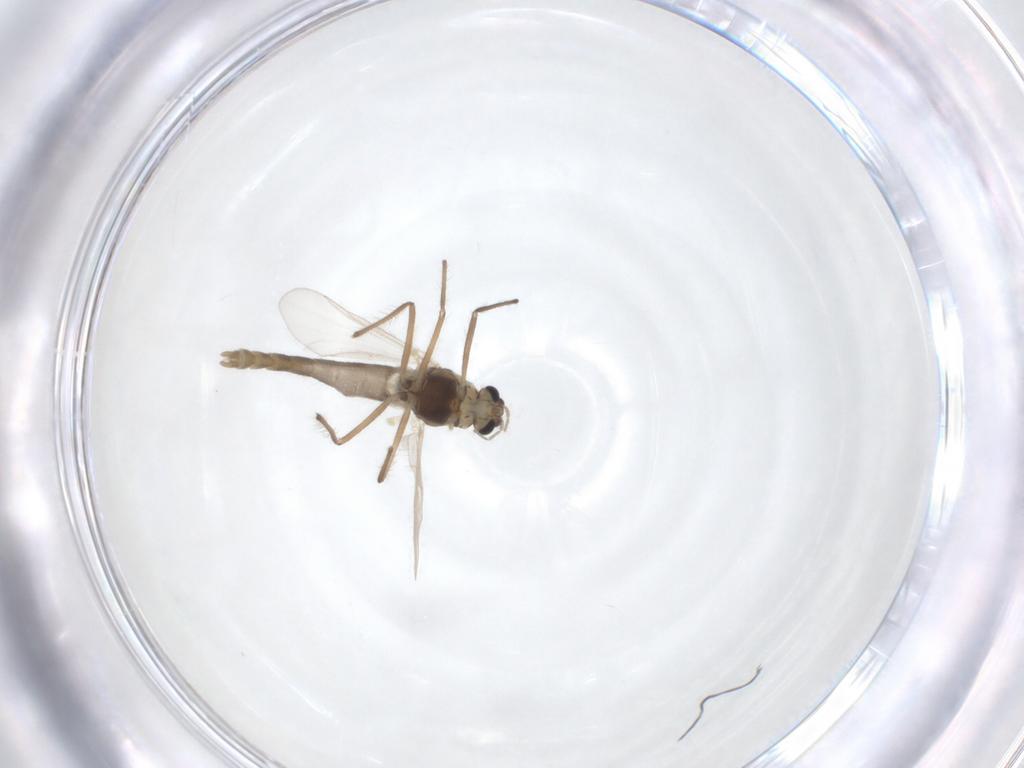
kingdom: Animalia
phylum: Arthropoda
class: Insecta
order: Diptera
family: Chironomidae
